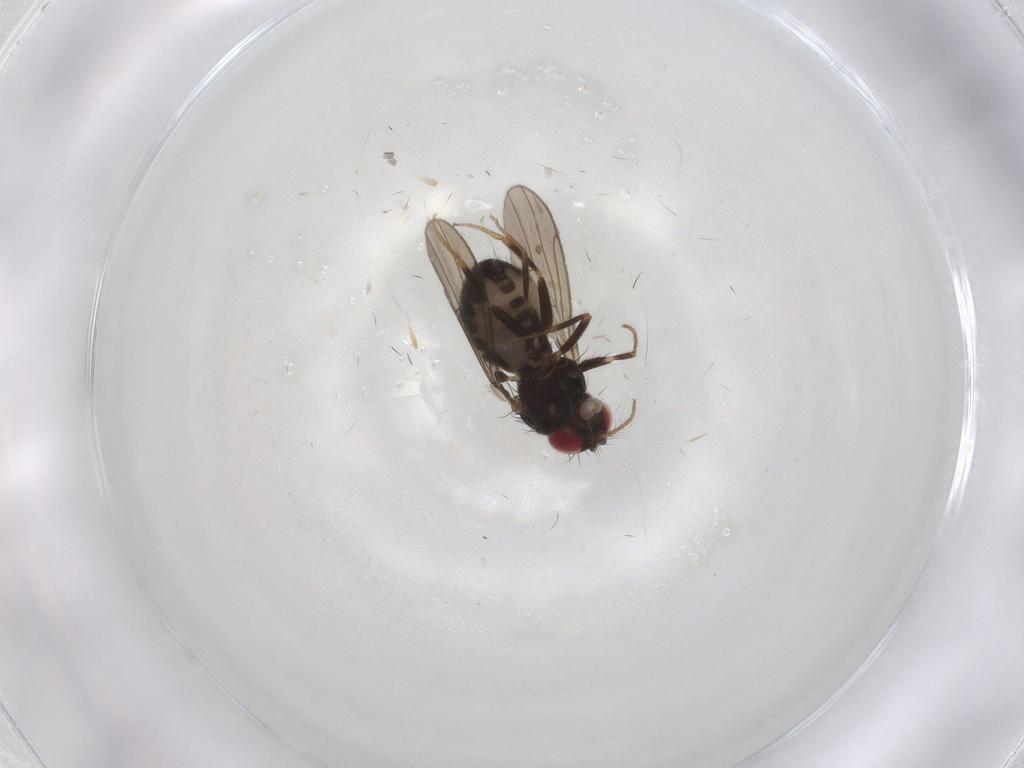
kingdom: Animalia
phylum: Arthropoda
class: Insecta
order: Diptera
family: Drosophilidae
